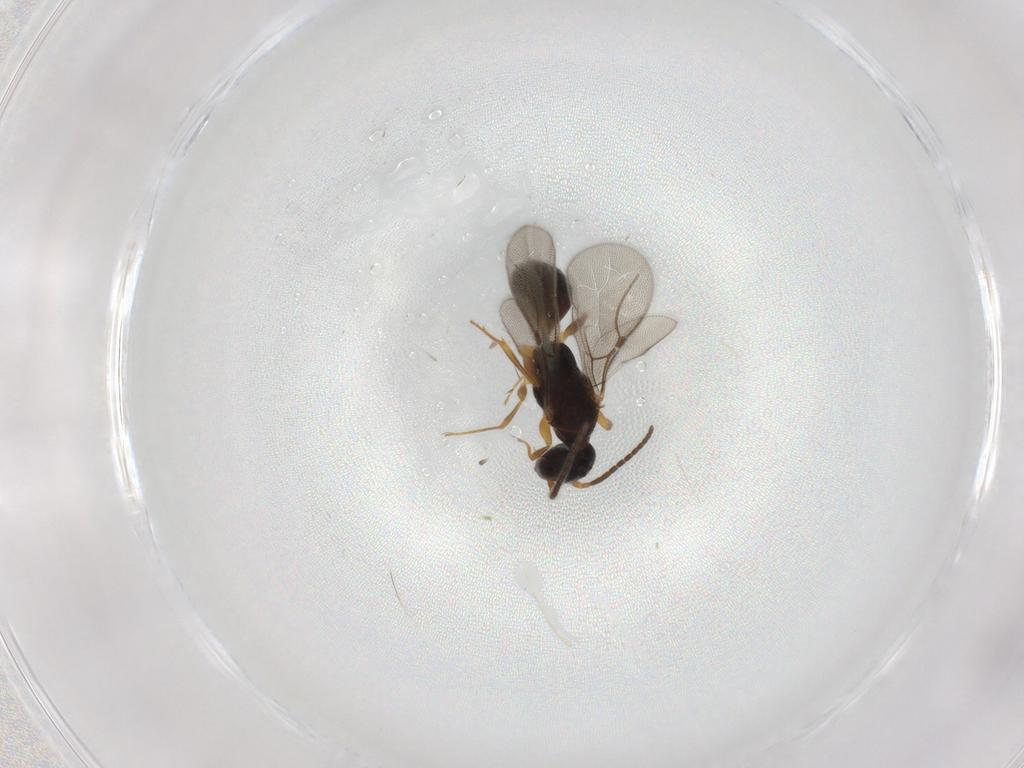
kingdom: Animalia
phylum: Arthropoda
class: Insecta
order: Hymenoptera
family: Bethylidae
